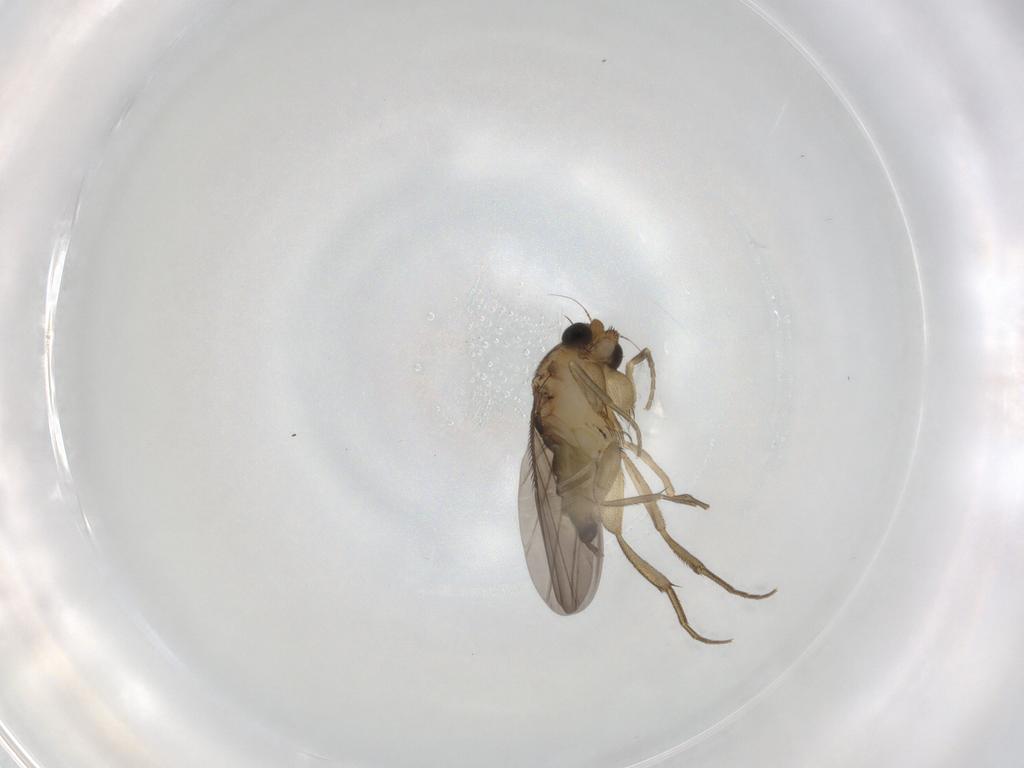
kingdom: Animalia
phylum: Arthropoda
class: Insecta
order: Diptera
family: Phoridae
